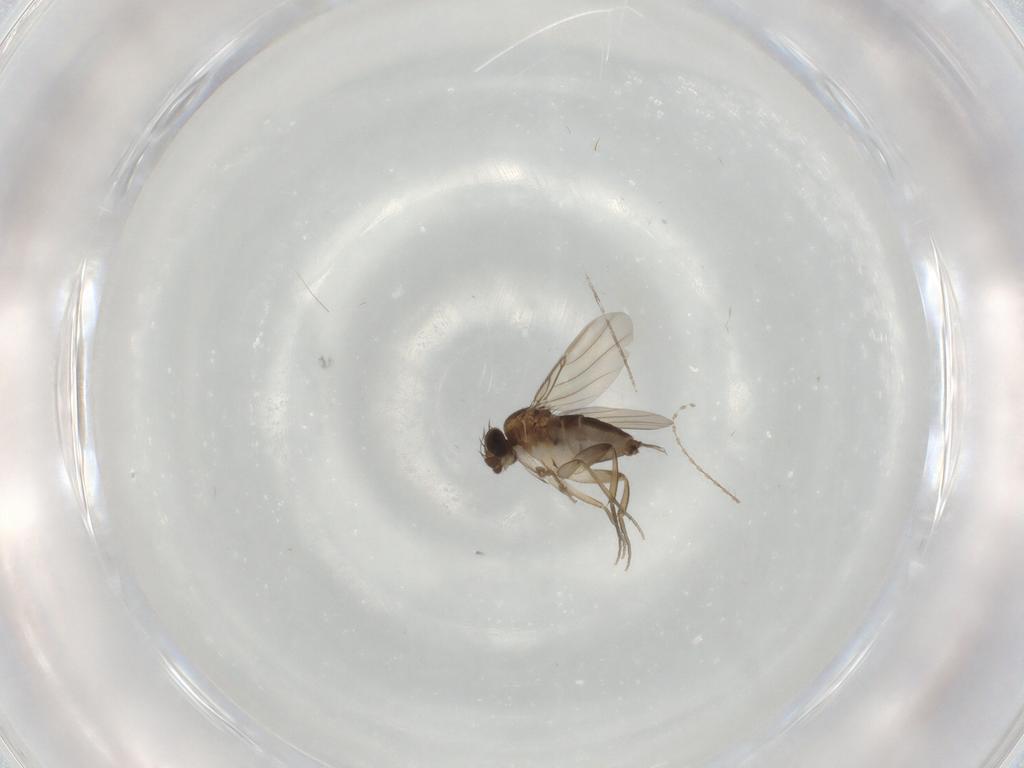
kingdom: Animalia
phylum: Arthropoda
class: Insecta
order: Diptera
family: Phoridae
